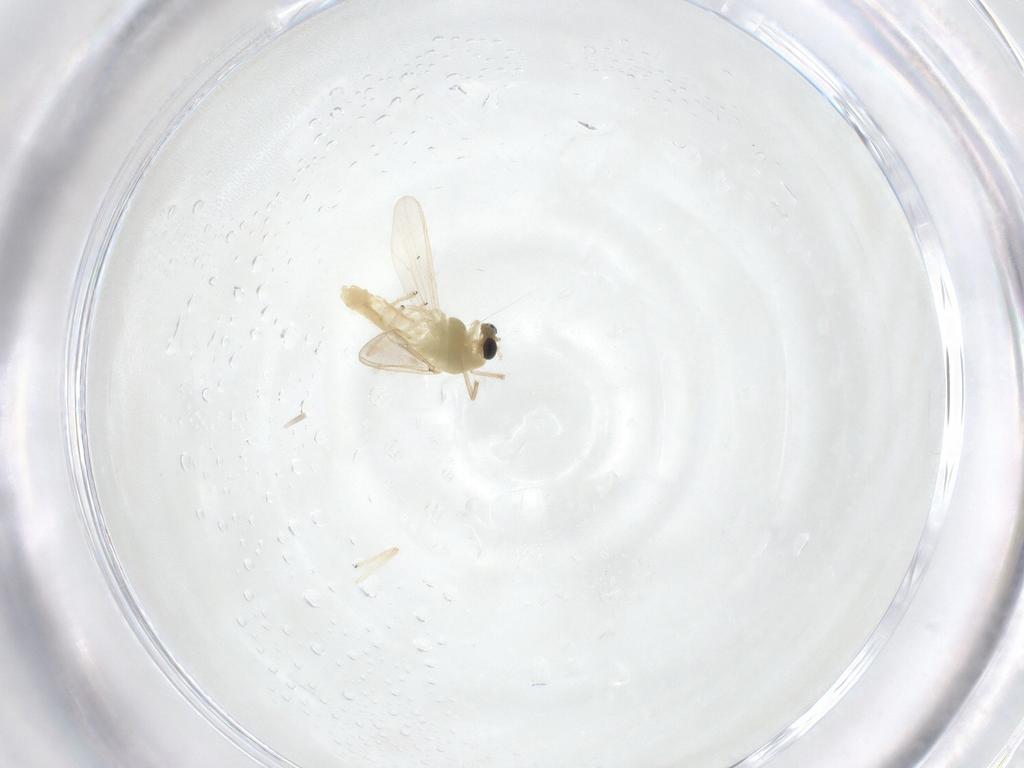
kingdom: Animalia
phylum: Arthropoda
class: Insecta
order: Diptera
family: Chironomidae
